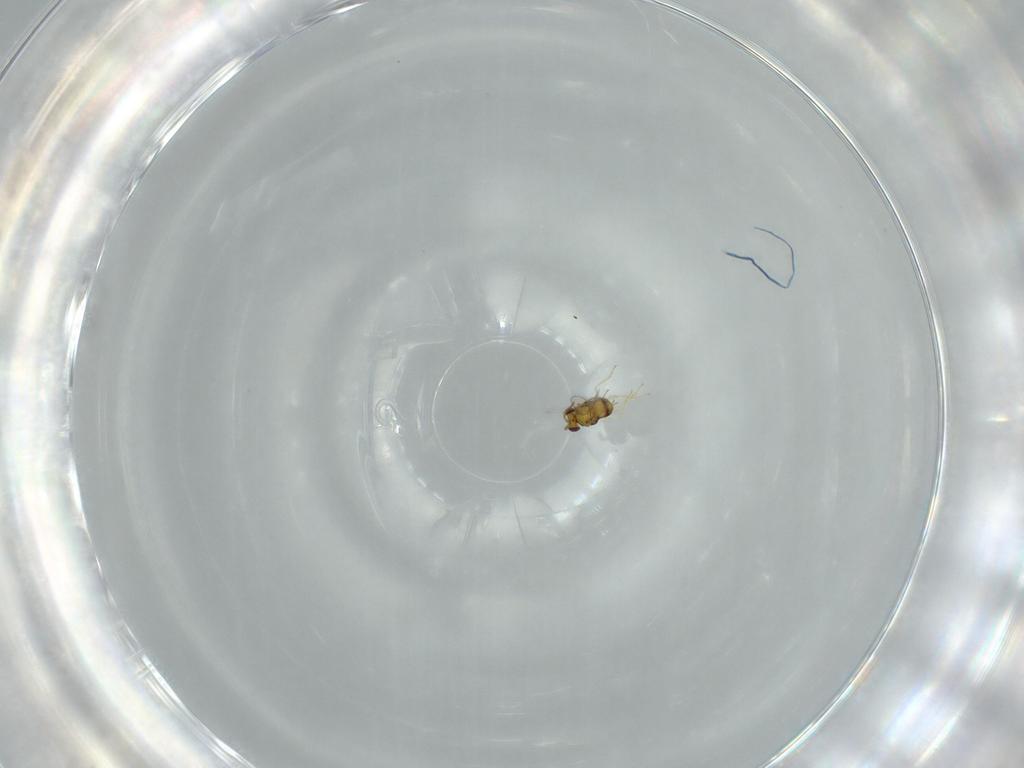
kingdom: Animalia
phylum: Arthropoda
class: Insecta
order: Hymenoptera
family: Aphelinidae
